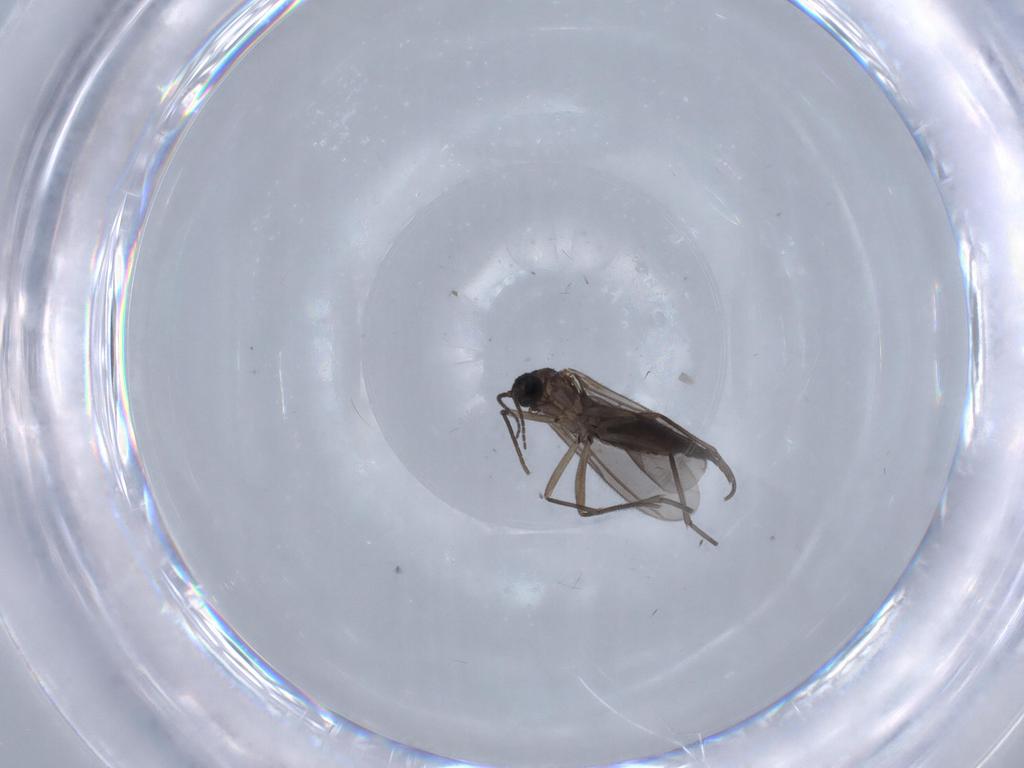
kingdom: Animalia
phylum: Arthropoda
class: Insecta
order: Diptera
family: Sciaridae
